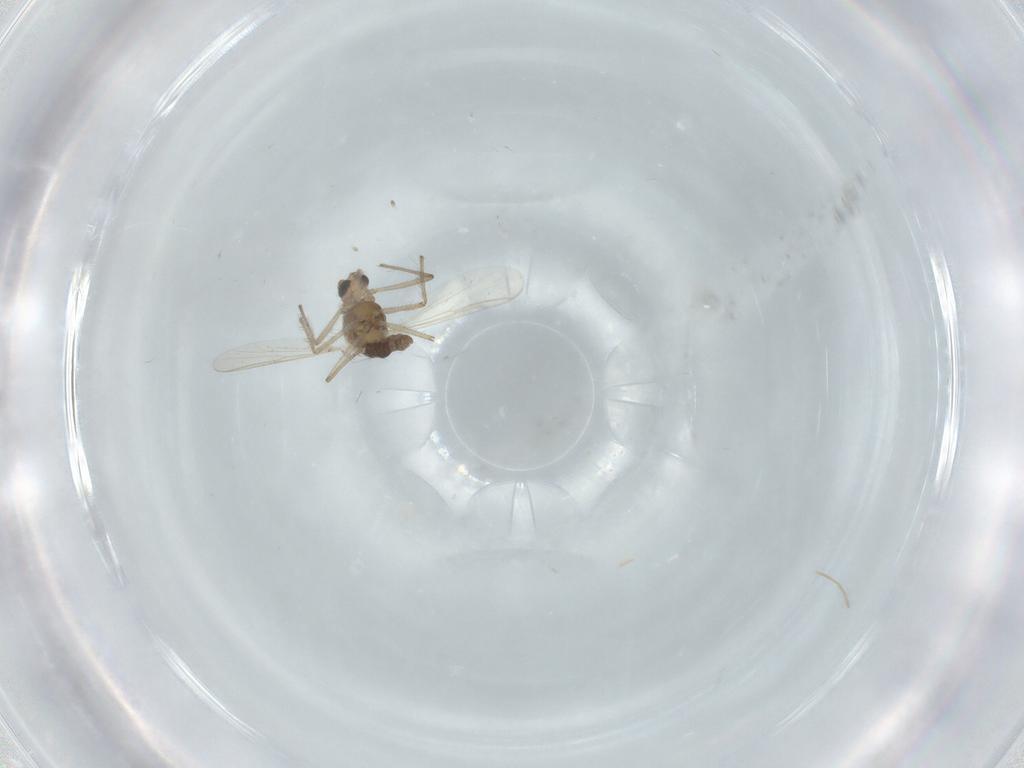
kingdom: Animalia
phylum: Arthropoda
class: Insecta
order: Diptera
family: Chironomidae
